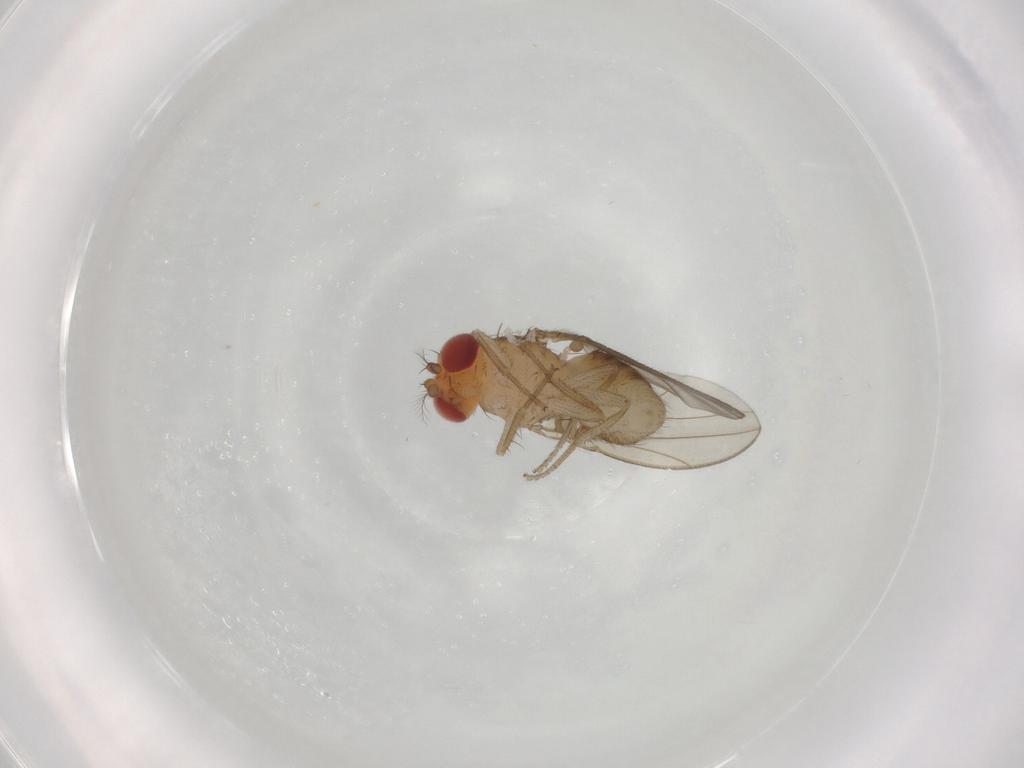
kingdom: Animalia
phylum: Arthropoda
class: Insecta
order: Diptera
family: Drosophilidae
